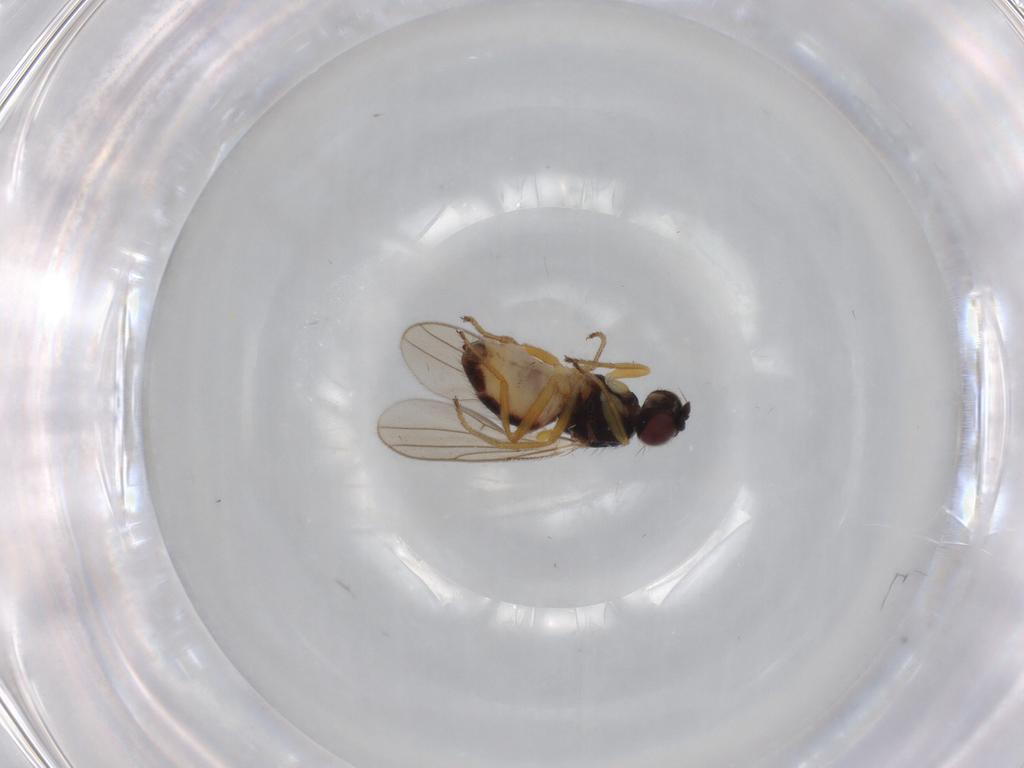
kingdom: Animalia
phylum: Arthropoda
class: Insecta
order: Diptera
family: Chloropidae
